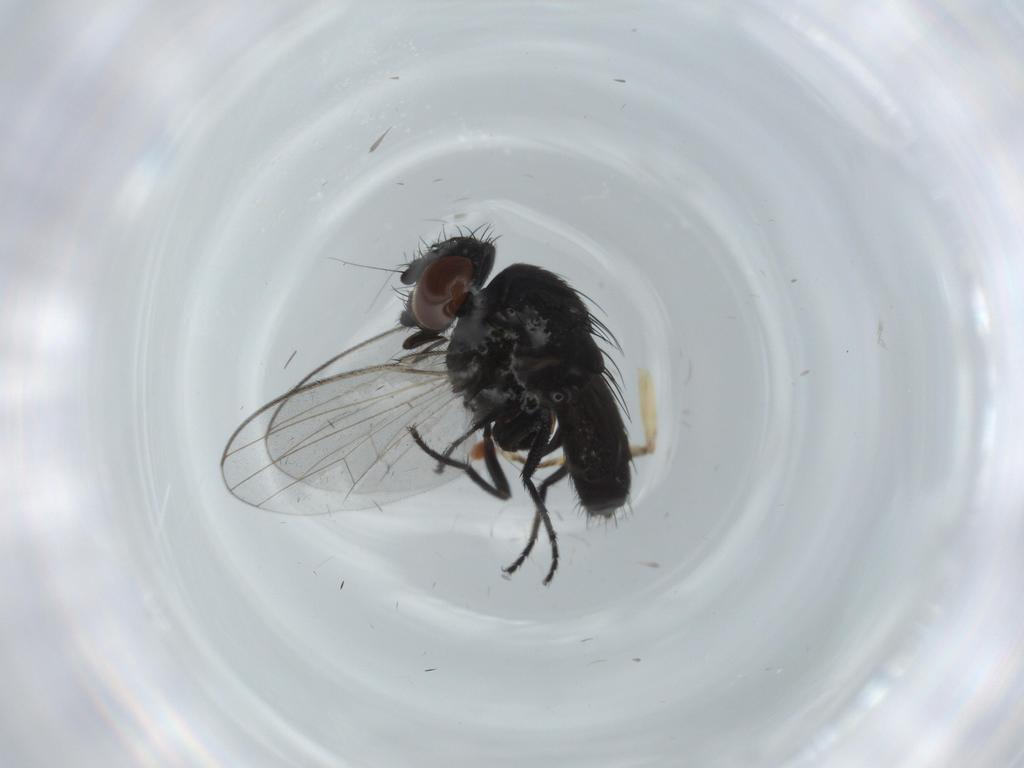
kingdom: Animalia
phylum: Arthropoda
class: Insecta
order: Diptera
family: Milichiidae
